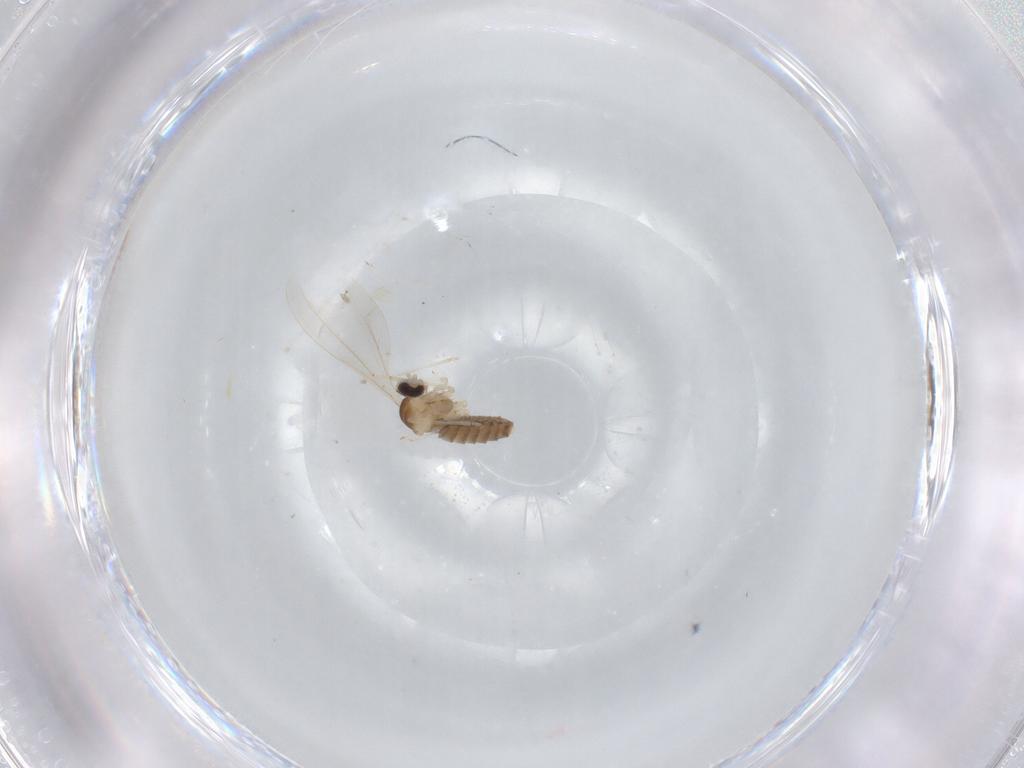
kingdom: Animalia
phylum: Arthropoda
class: Insecta
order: Diptera
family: Cecidomyiidae
